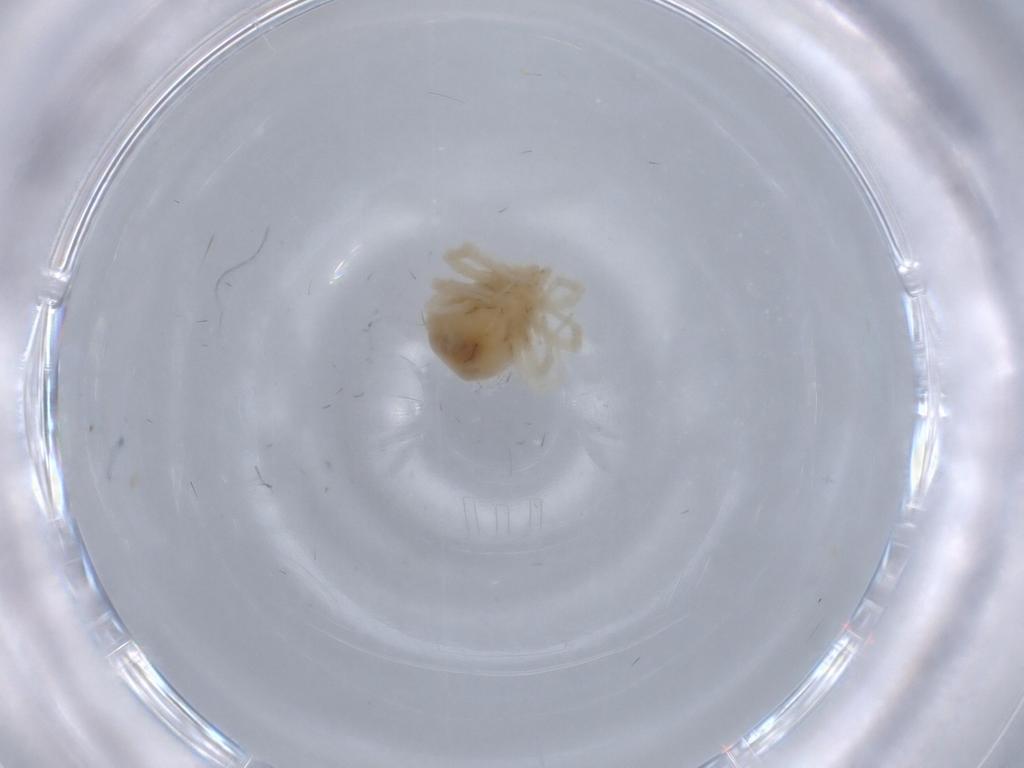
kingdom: Animalia
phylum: Arthropoda
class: Arachnida
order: Trombidiformes
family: Anystidae
